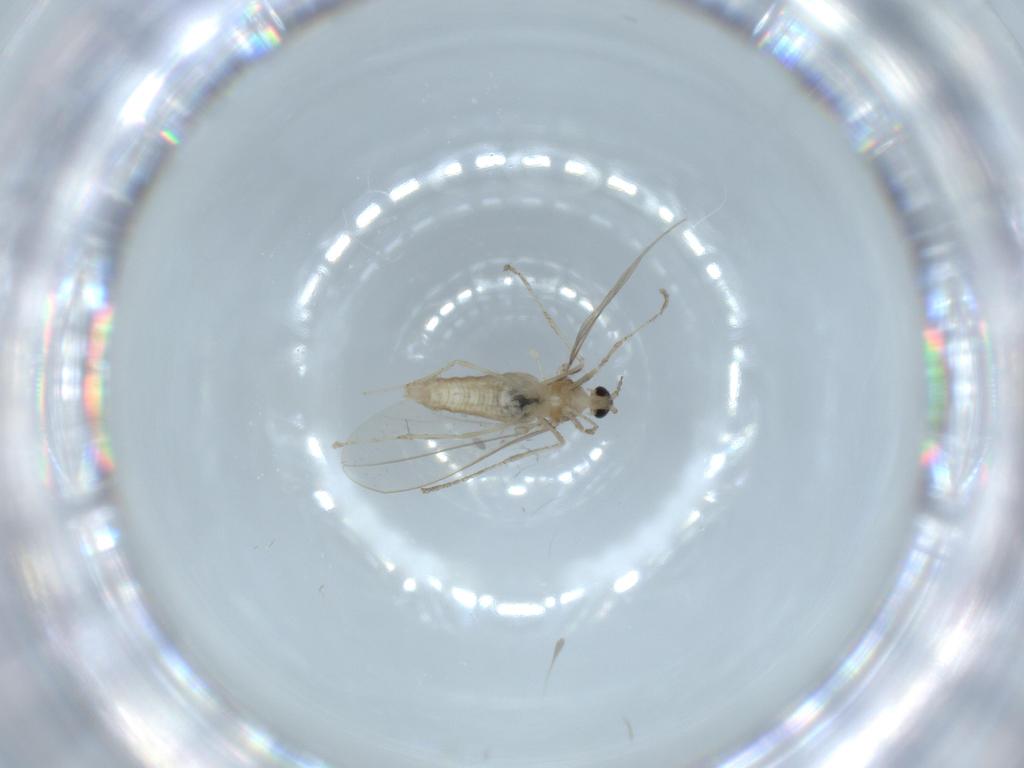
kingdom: Animalia
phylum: Arthropoda
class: Insecta
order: Diptera
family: Cecidomyiidae
